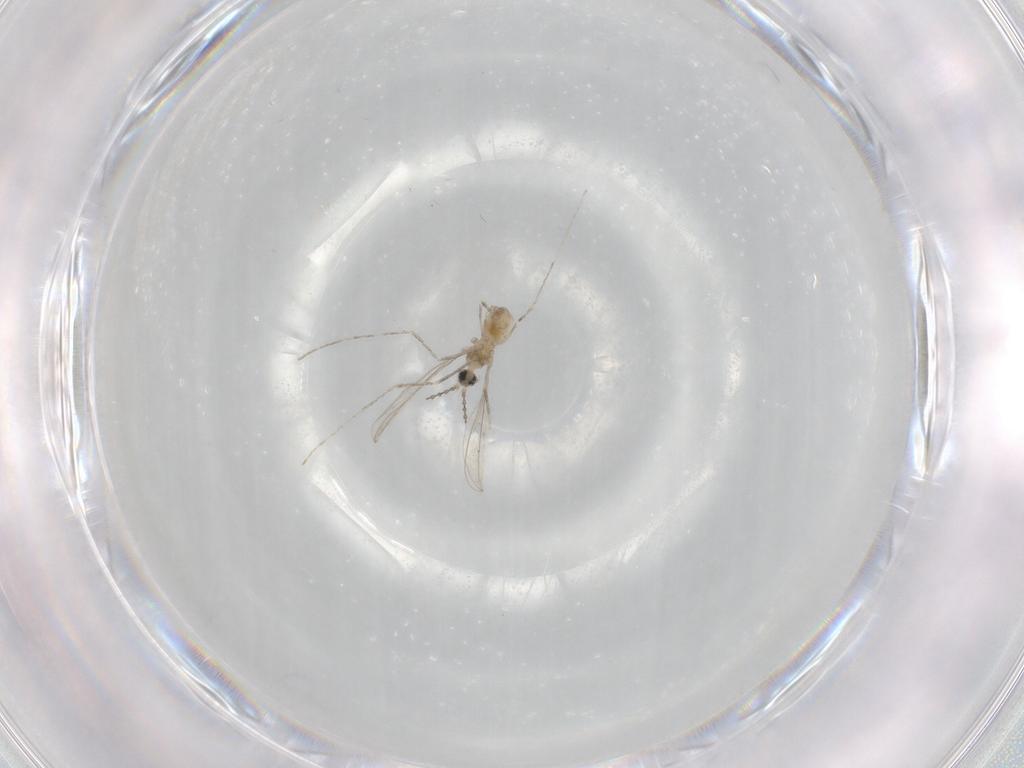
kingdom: Animalia
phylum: Arthropoda
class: Insecta
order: Diptera
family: Cecidomyiidae
